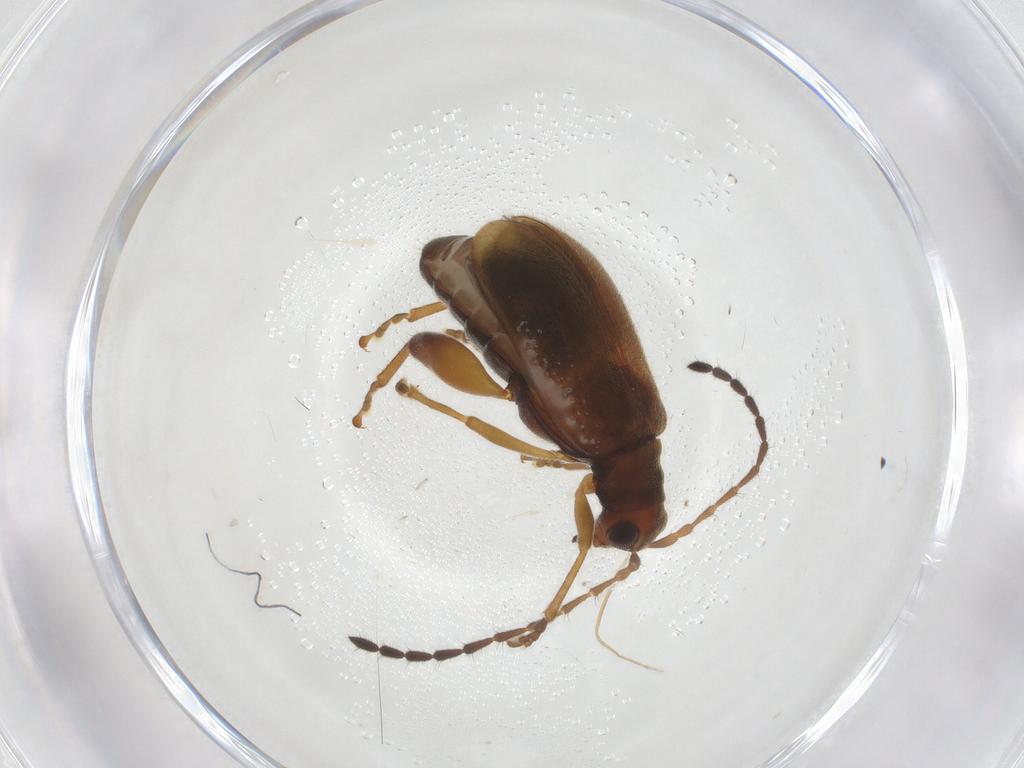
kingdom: Animalia
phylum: Arthropoda
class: Insecta
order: Coleoptera
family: Chrysomelidae
